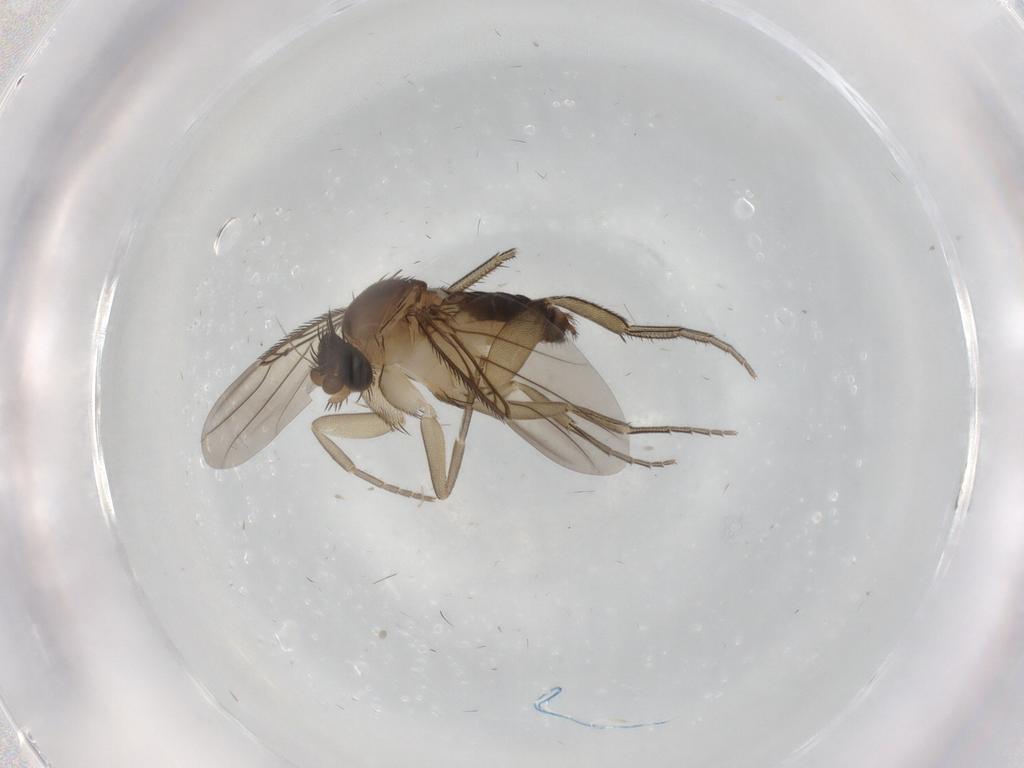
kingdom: Animalia
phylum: Arthropoda
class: Insecta
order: Diptera
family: Phoridae
